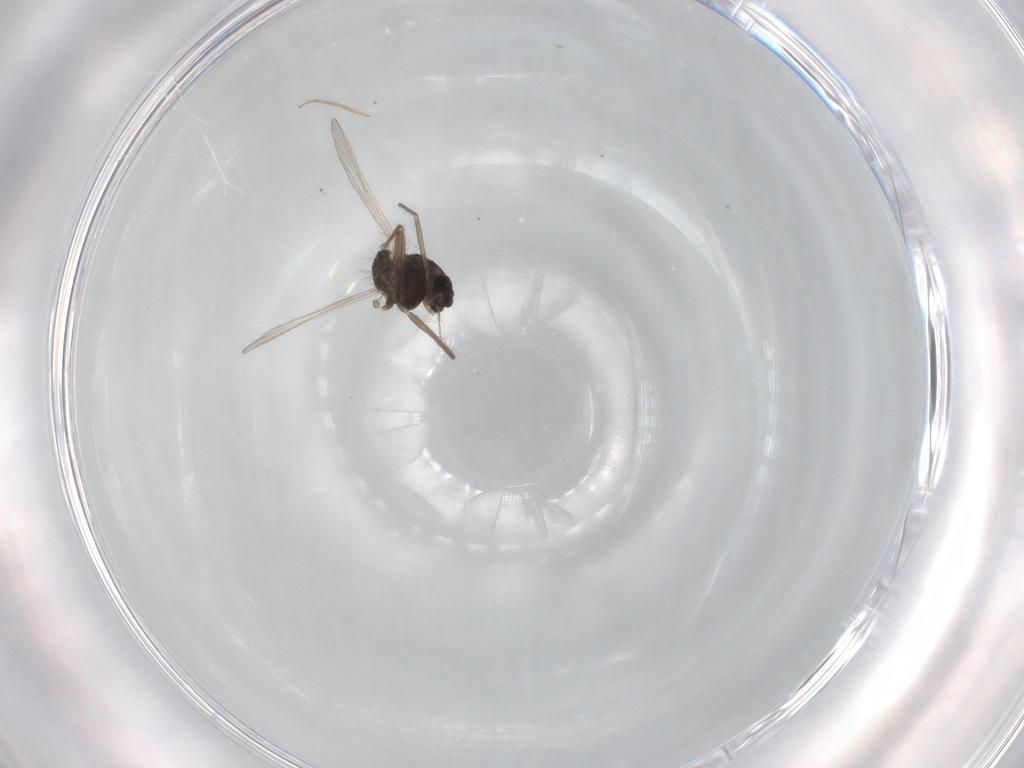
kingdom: Animalia
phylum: Arthropoda
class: Insecta
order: Diptera
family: Chironomidae
